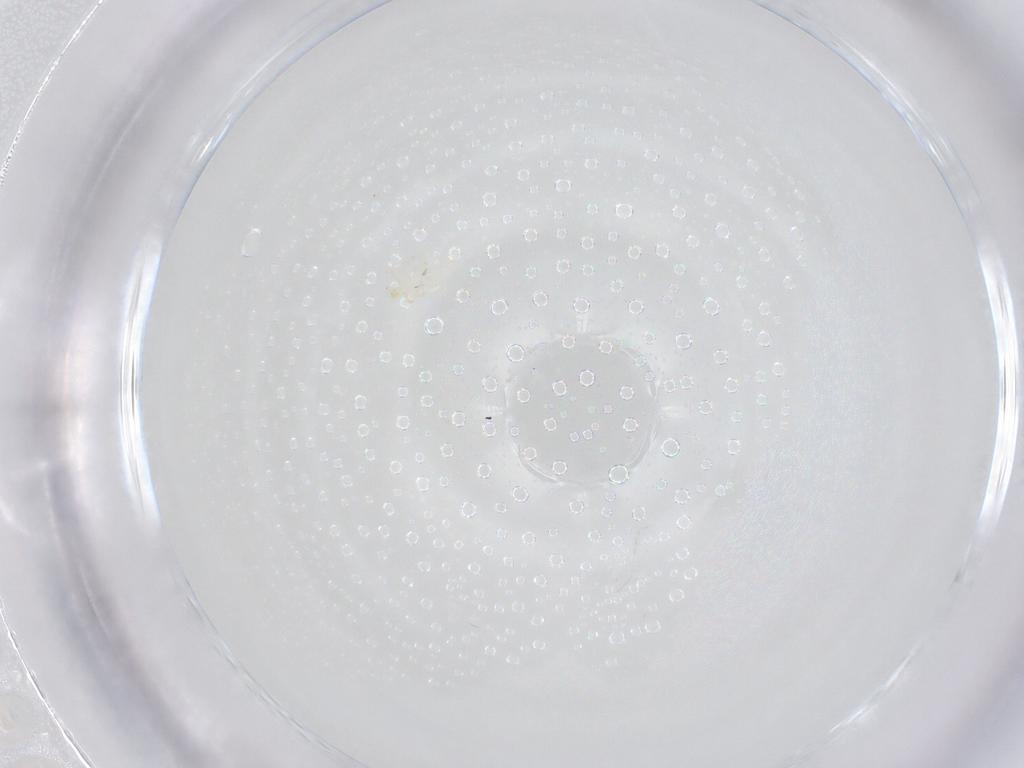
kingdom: Animalia
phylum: Arthropoda
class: Arachnida
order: Trombidiformes
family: Erythraeidae
